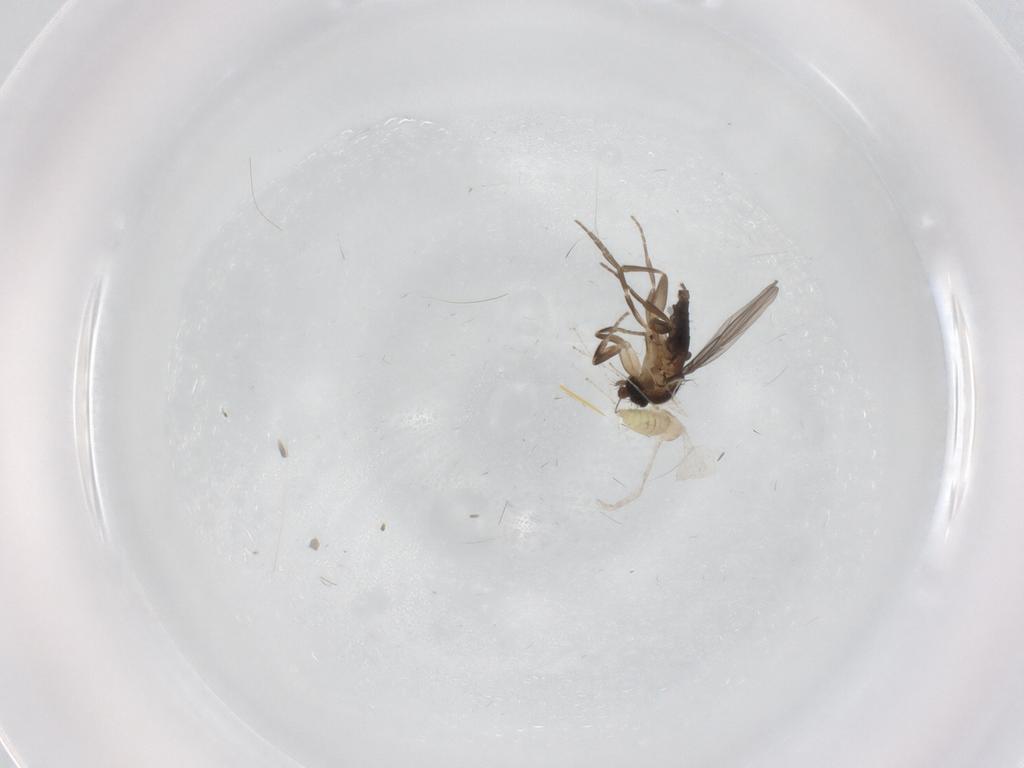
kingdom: Animalia
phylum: Arthropoda
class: Insecta
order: Diptera
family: Cecidomyiidae
